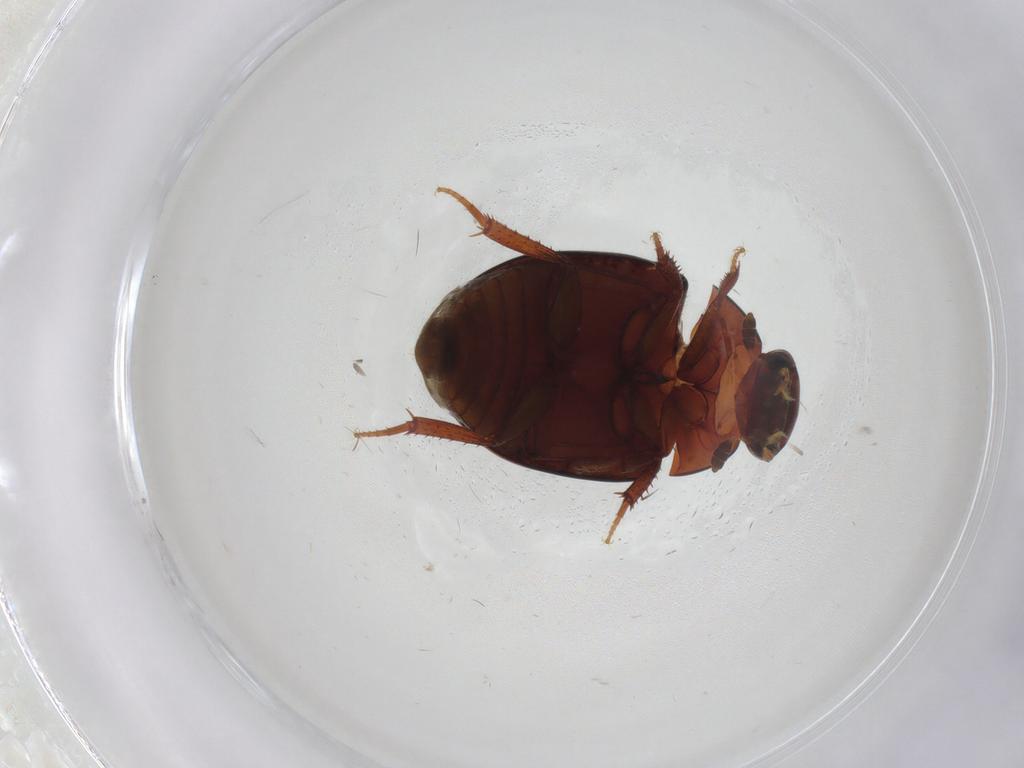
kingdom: Animalia
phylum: Arthropoda
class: Insecta
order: Coleoptera
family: Hydrophilidae
